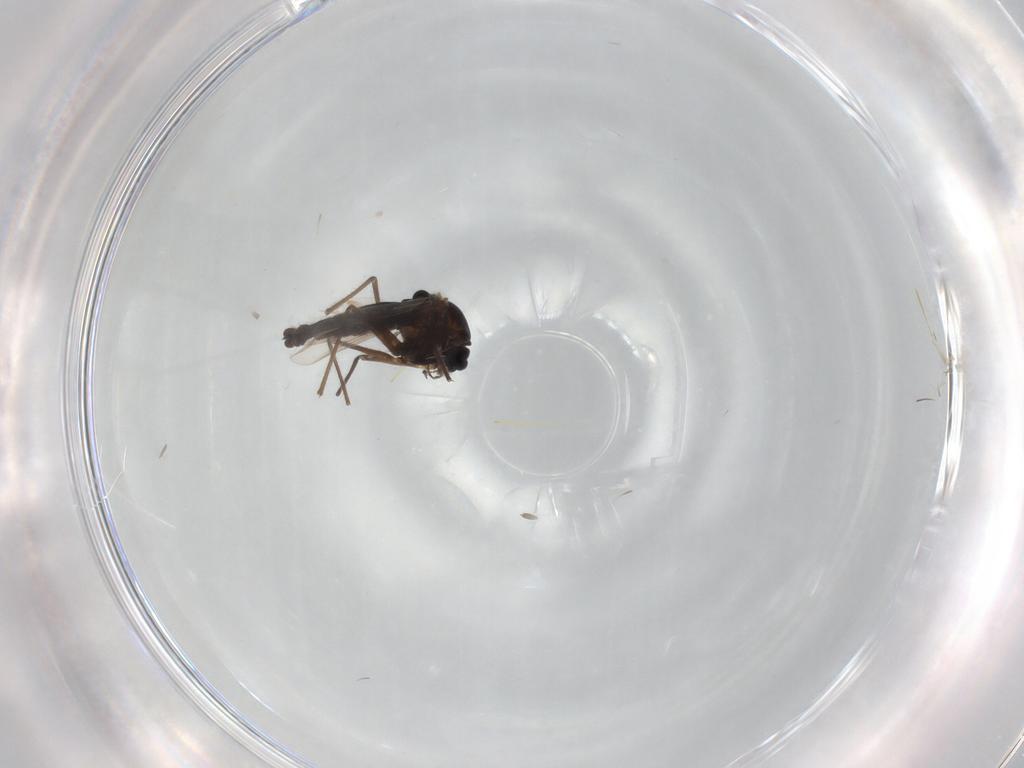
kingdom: Animalia
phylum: Arthropoda
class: Insecta
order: Diptera
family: Chironomidae
